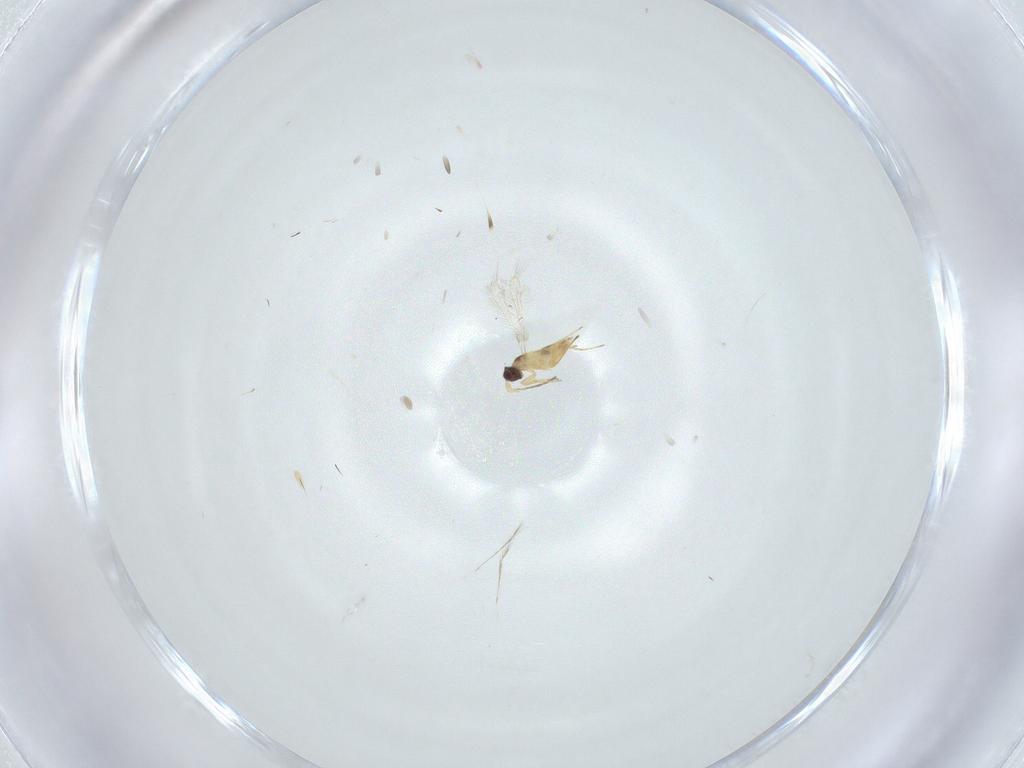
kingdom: Animalia
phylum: Arthropoda
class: Insecta
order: Hymenoptera
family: Mymaridae
